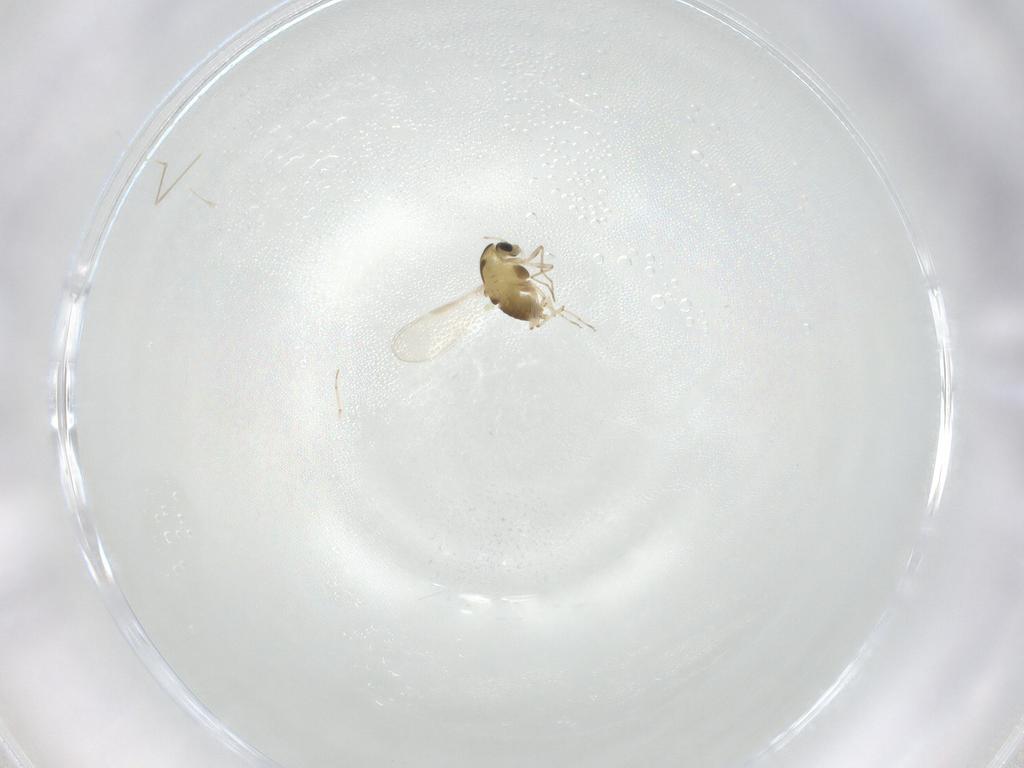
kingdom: Animalia
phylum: Arthropoda
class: Insecta
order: Diptera
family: Chironomidae
